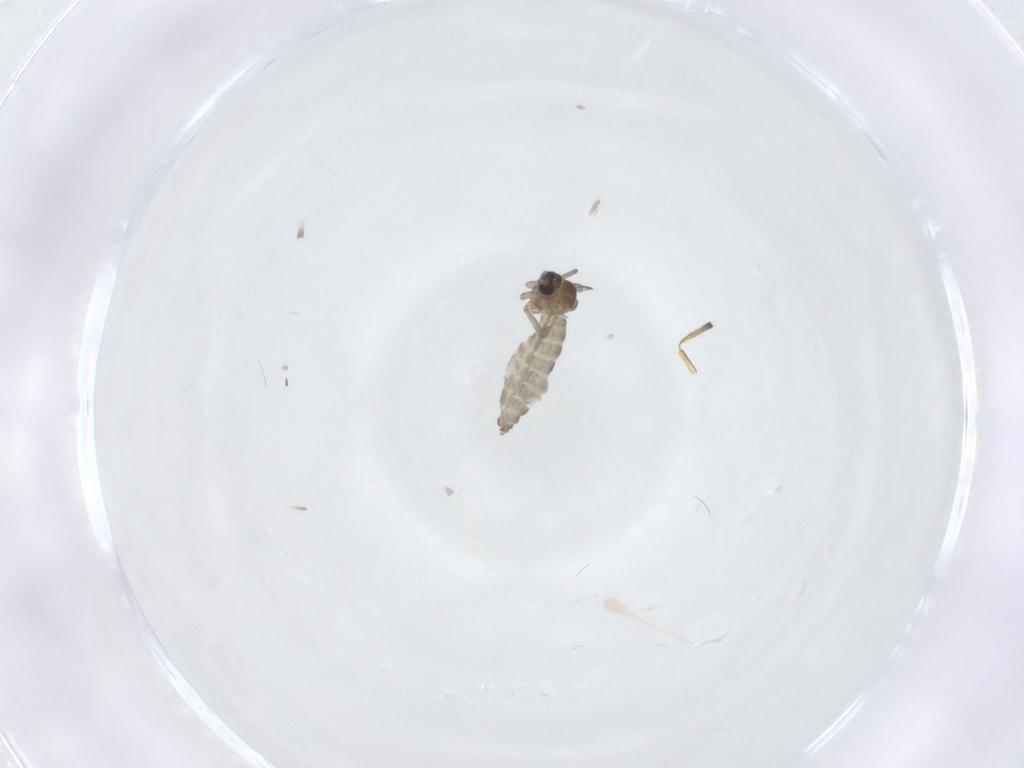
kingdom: Animalia
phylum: Arthropoda
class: Insecta
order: Diptera
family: Cecidomyiidae
